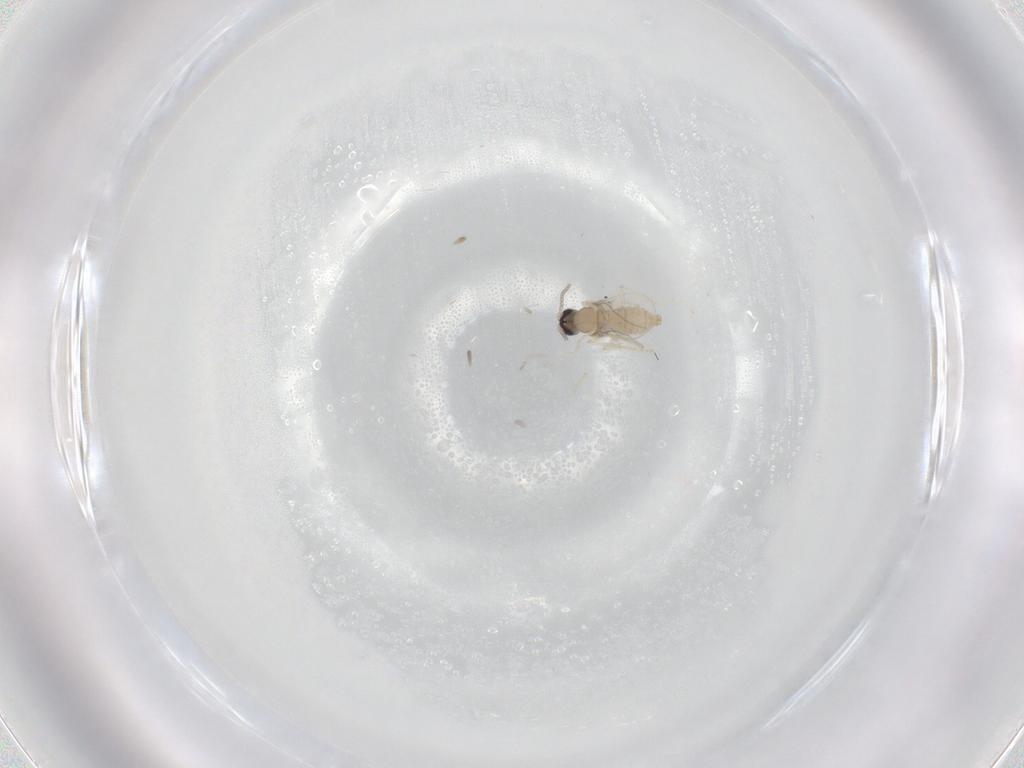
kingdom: Animalia
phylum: Arthropoda
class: Insecta
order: Diptera
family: Cecidomyiidae
